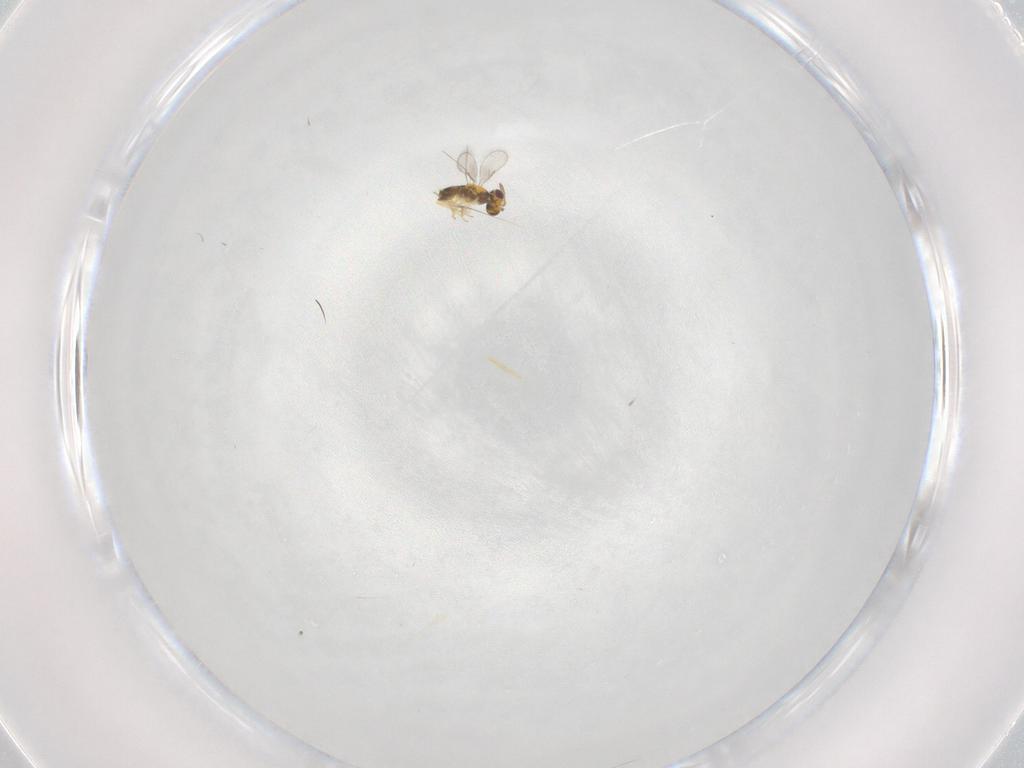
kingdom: Animalia
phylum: Arthropoda
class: Insecta
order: Hymenoptera
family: Aphelinidae
